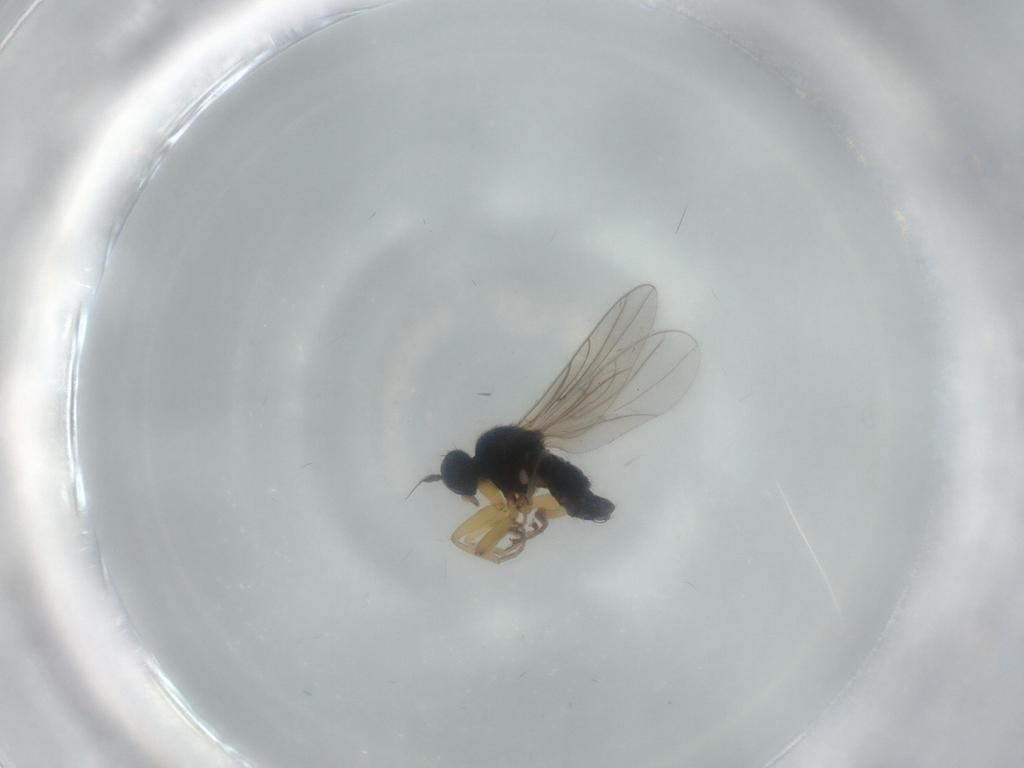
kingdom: Animalia
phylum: Arthropoda
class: Insecta
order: Diptera
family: Hybotidae
